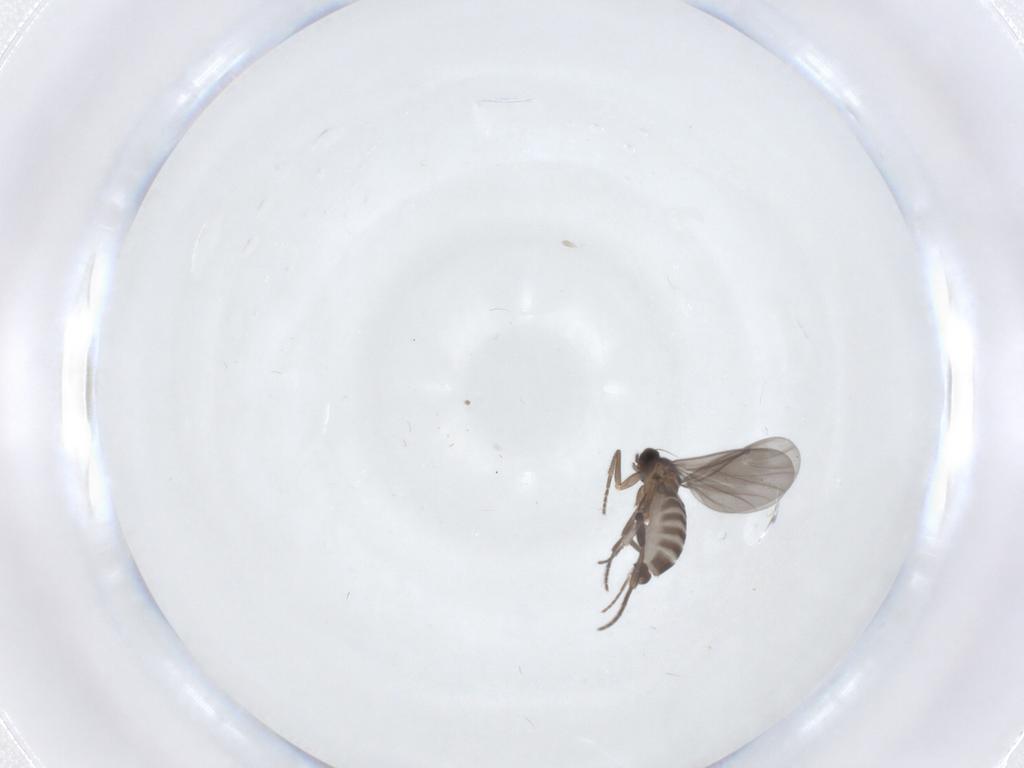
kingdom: Animalia
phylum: Arthropoda
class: Insecta
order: Diptera
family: Phoridae
